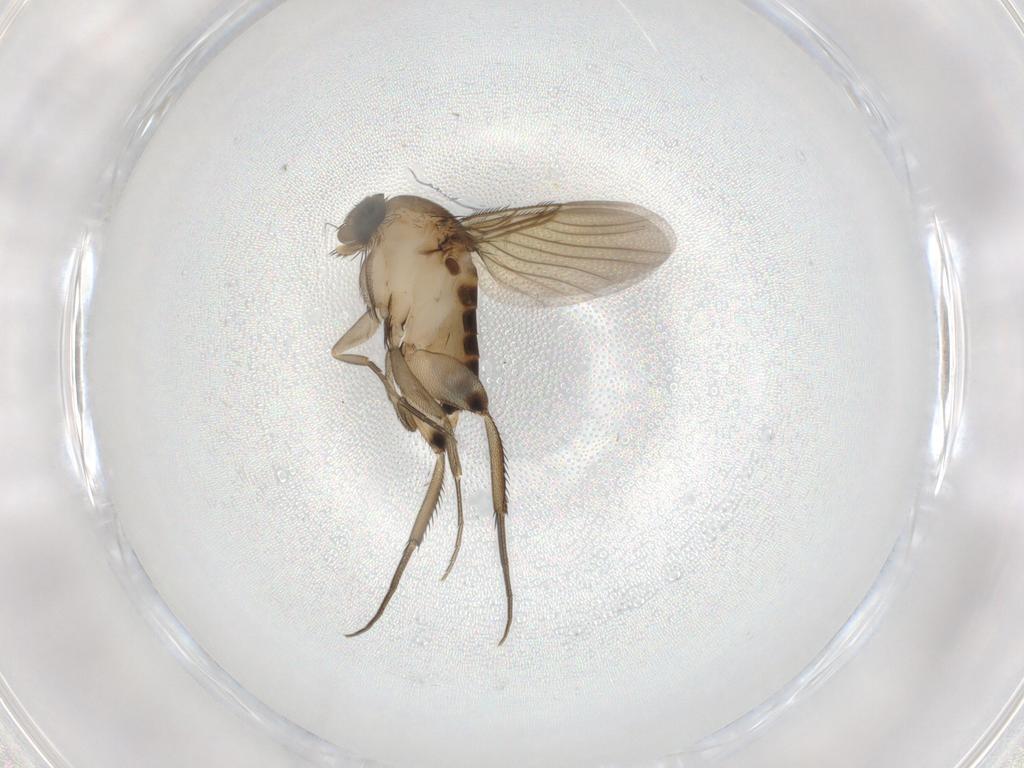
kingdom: Animalia
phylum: Arthropoda
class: Insecta
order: Diptera
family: Phoridae
